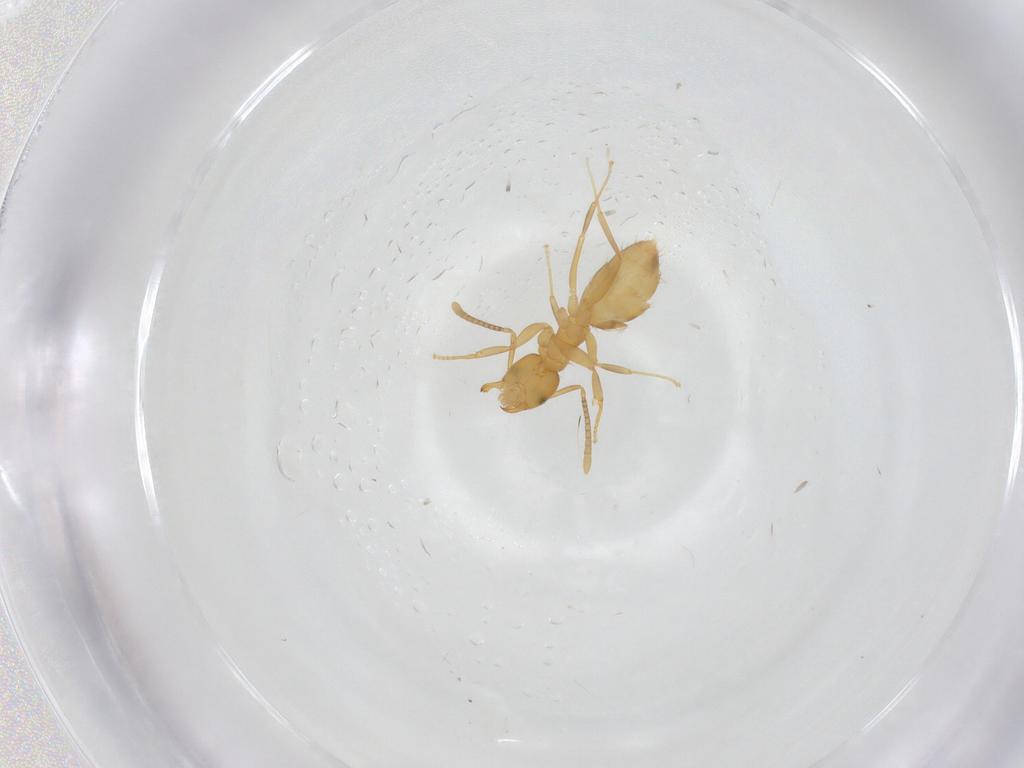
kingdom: Animalia
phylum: Arthropoda
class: Insecta
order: Hymenoptera
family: Formicidae
